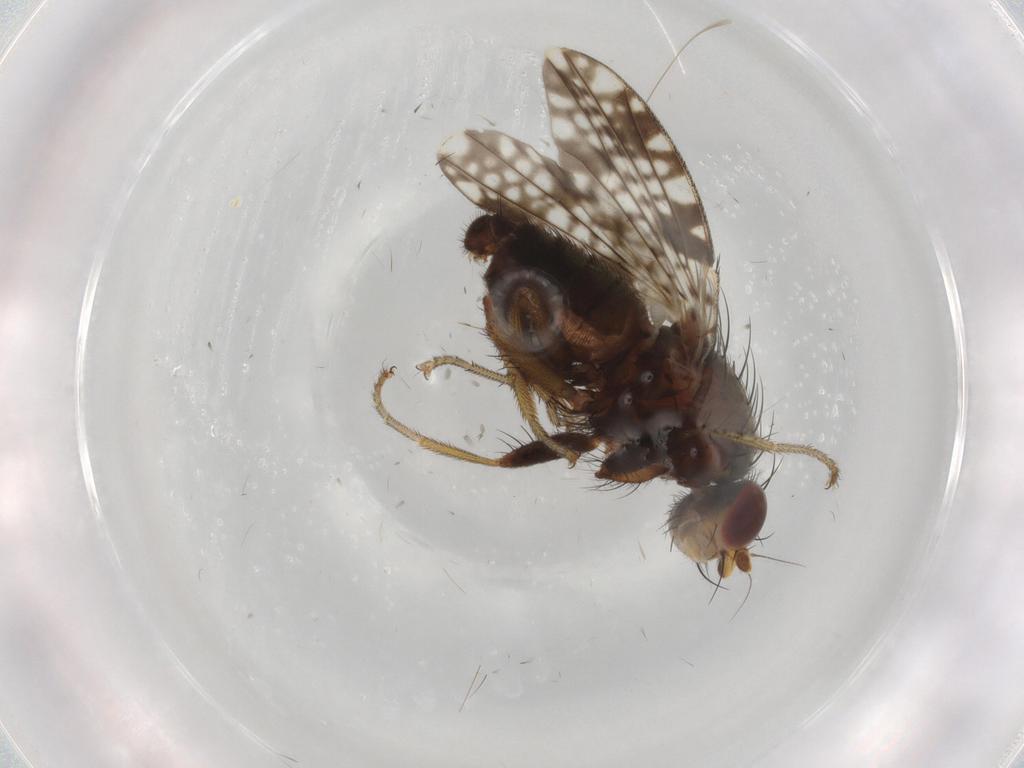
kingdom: Animalia
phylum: Arthropoda
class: Insecta
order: Diptera
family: Tephritidae
